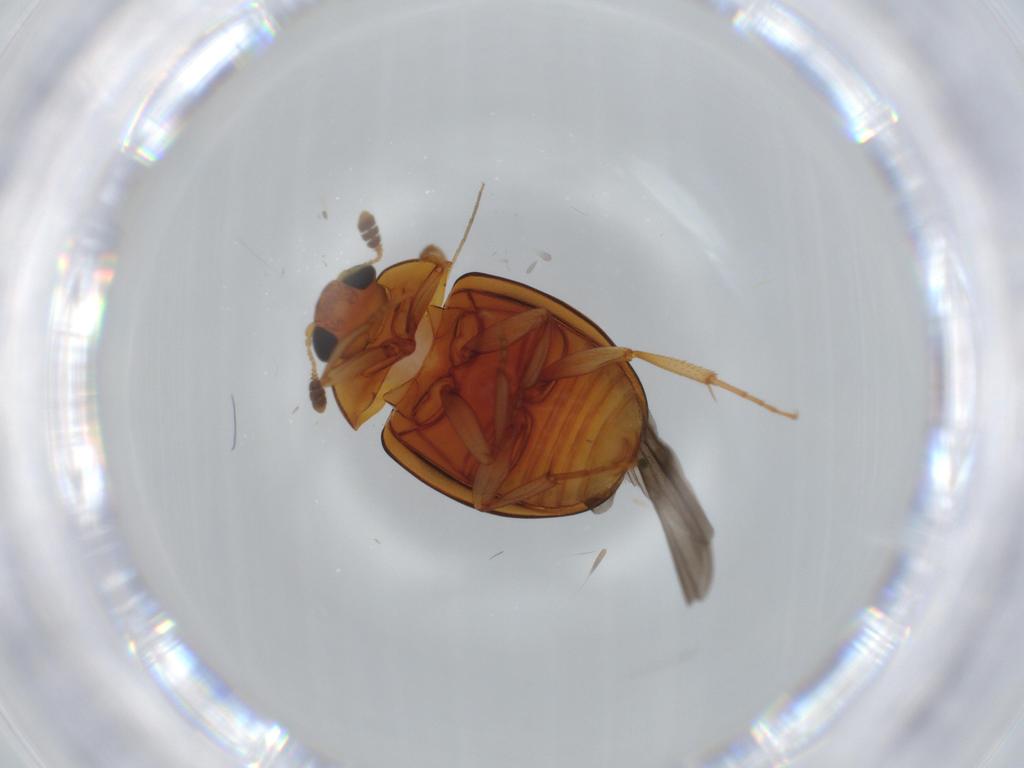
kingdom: Animalia
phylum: Arthropoda
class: Insecta
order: Coleoptera
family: Nitidulidae
